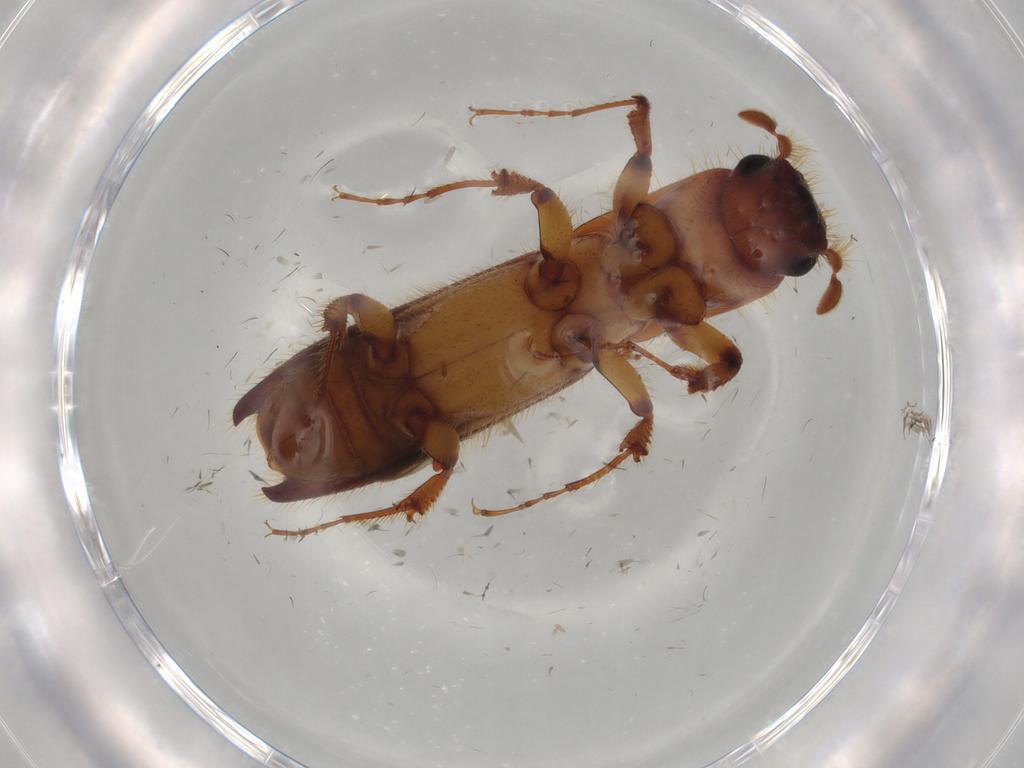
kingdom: Animalia
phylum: Arthropoda
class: Insecta
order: Coleoptera
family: Curculionidae
